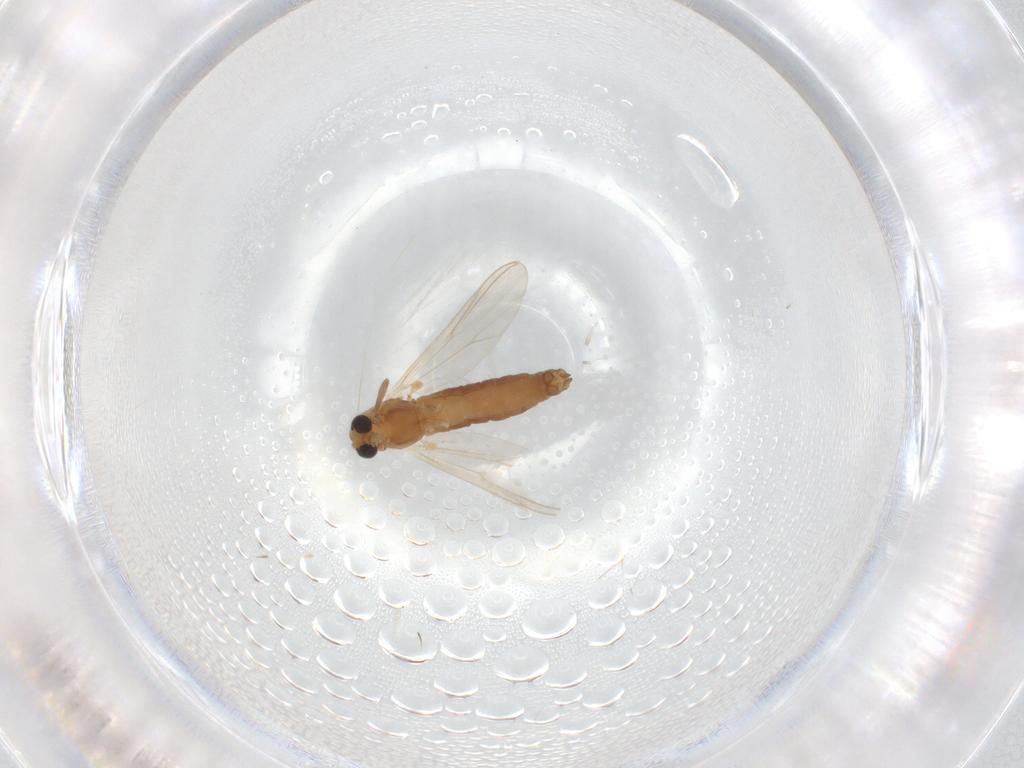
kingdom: Animalia
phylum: Arthropoda
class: Insecta
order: Diptera
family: Chironomidae
